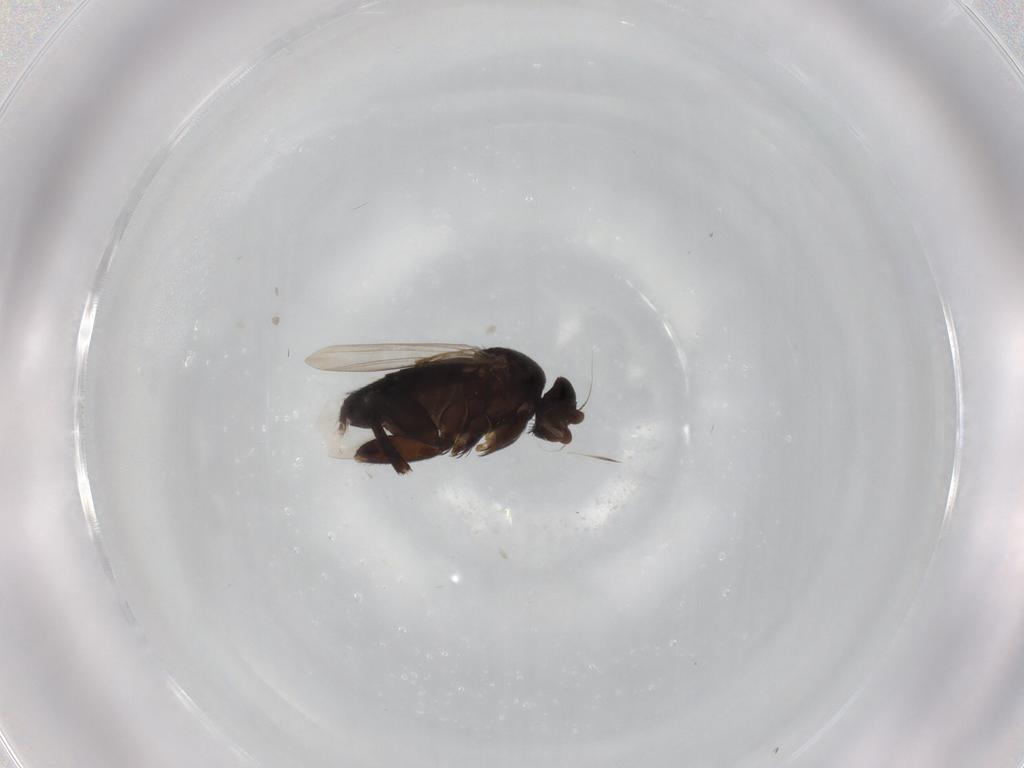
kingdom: Animalia
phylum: Arthropoda
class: Insecta
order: Diptera
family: Phoridae
